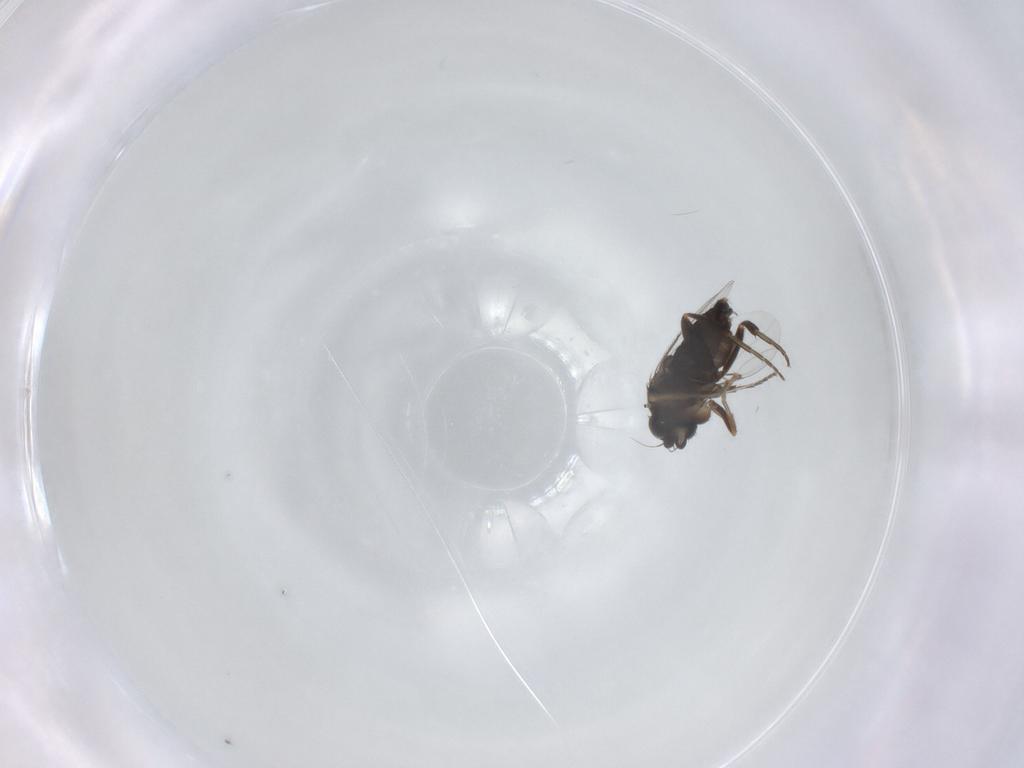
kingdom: Animalia
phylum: Arthropoda
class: Insecta
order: Diptera
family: Phoridae
